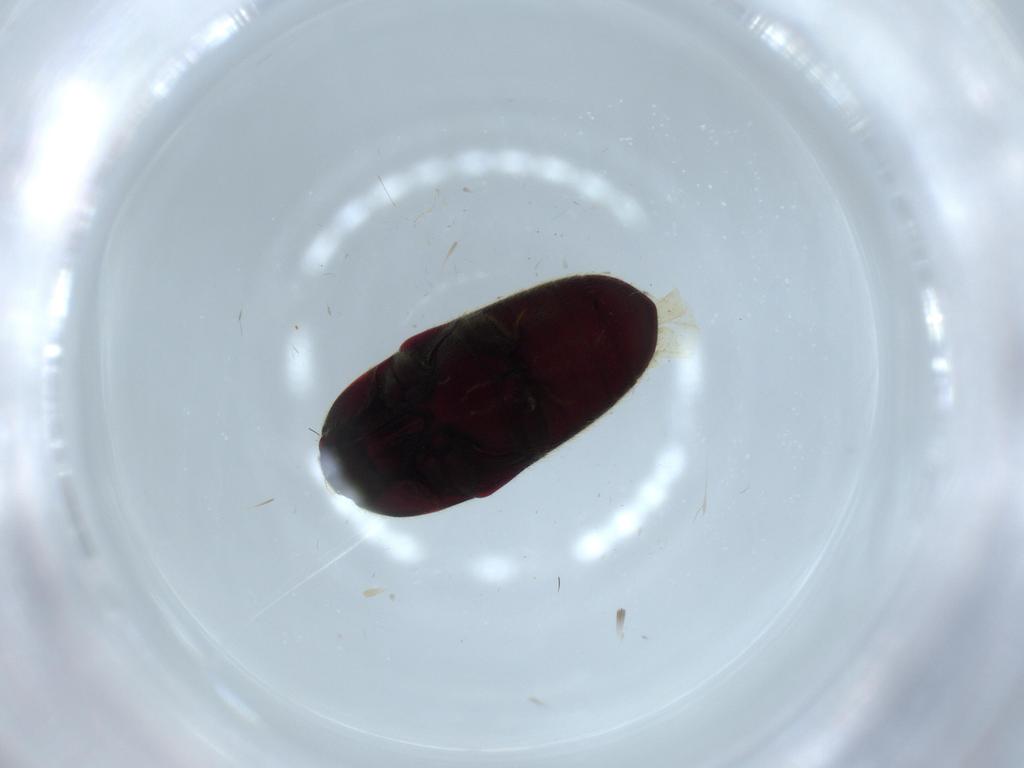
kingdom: Animalia
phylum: Arthropoda
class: Insecta
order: Coleoptera
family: Throscidae
